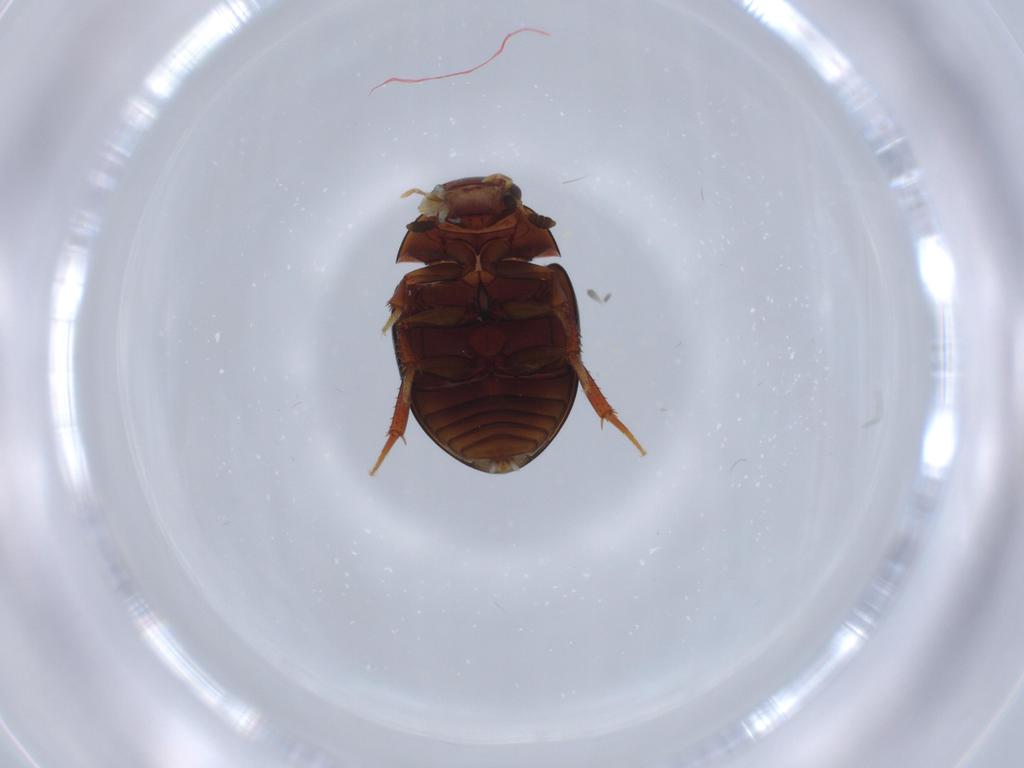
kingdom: Animalia
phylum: Arthropoda
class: Insecta
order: Coleoptera
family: Hydrophilidae
